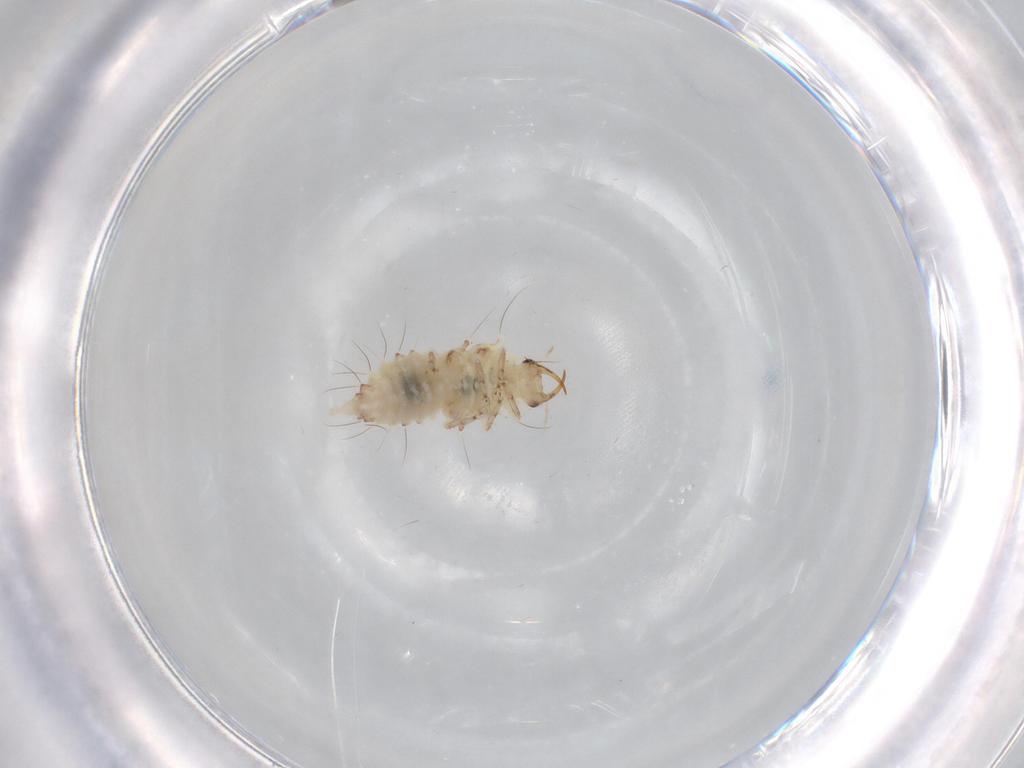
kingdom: Animalia
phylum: Arthropoda
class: Insecta
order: Neuroptera
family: Chrysopidae
